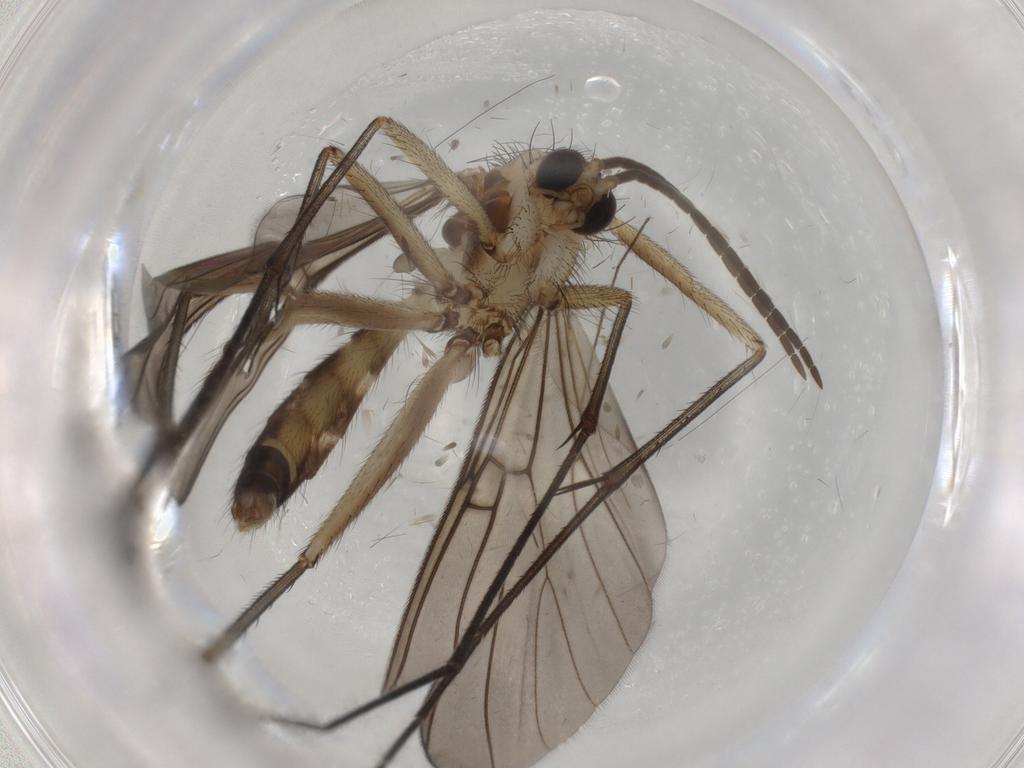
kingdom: Animalia
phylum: Arthropoda
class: Insecta
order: Diptera
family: Mycetophilidae
